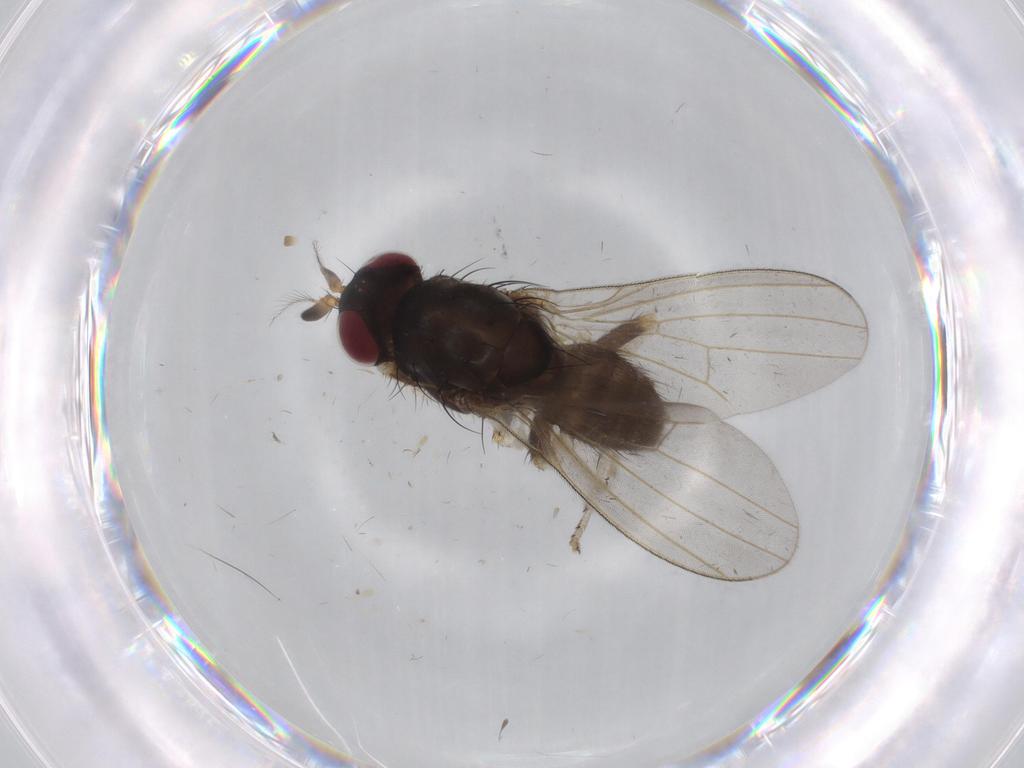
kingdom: Animalia
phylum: Arthropoda
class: Insecta
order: Diptera
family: Lauxaniidae
